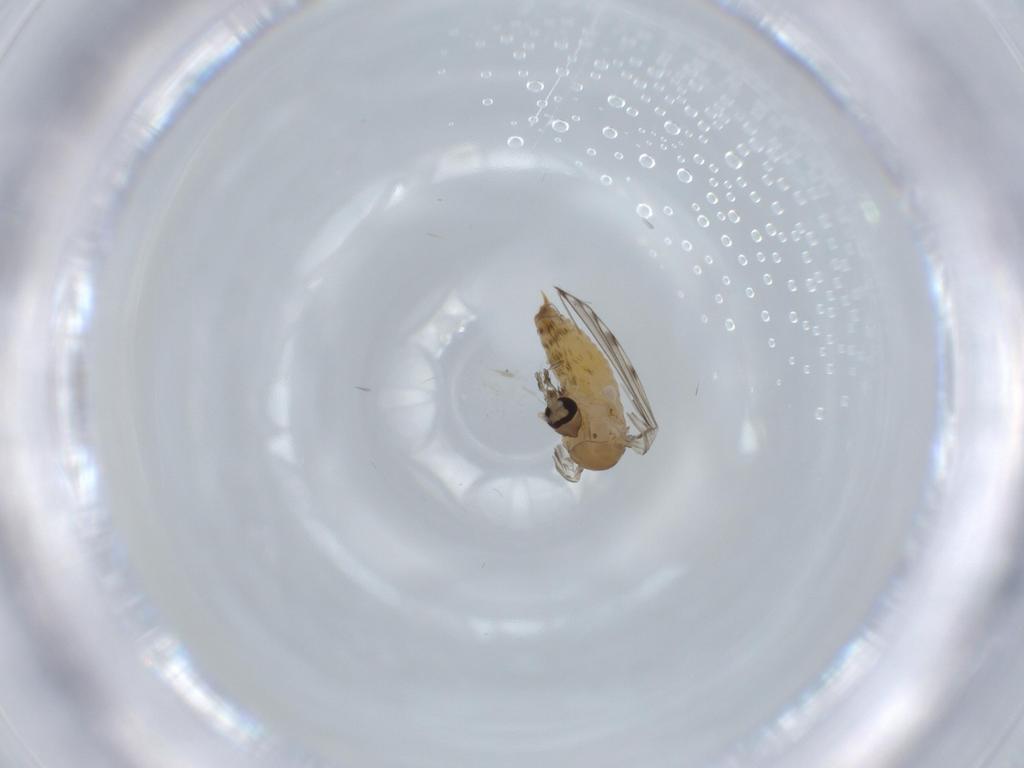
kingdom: Animalia
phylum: Arthropoda
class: Insecta
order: Diptera
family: Psychodidae
